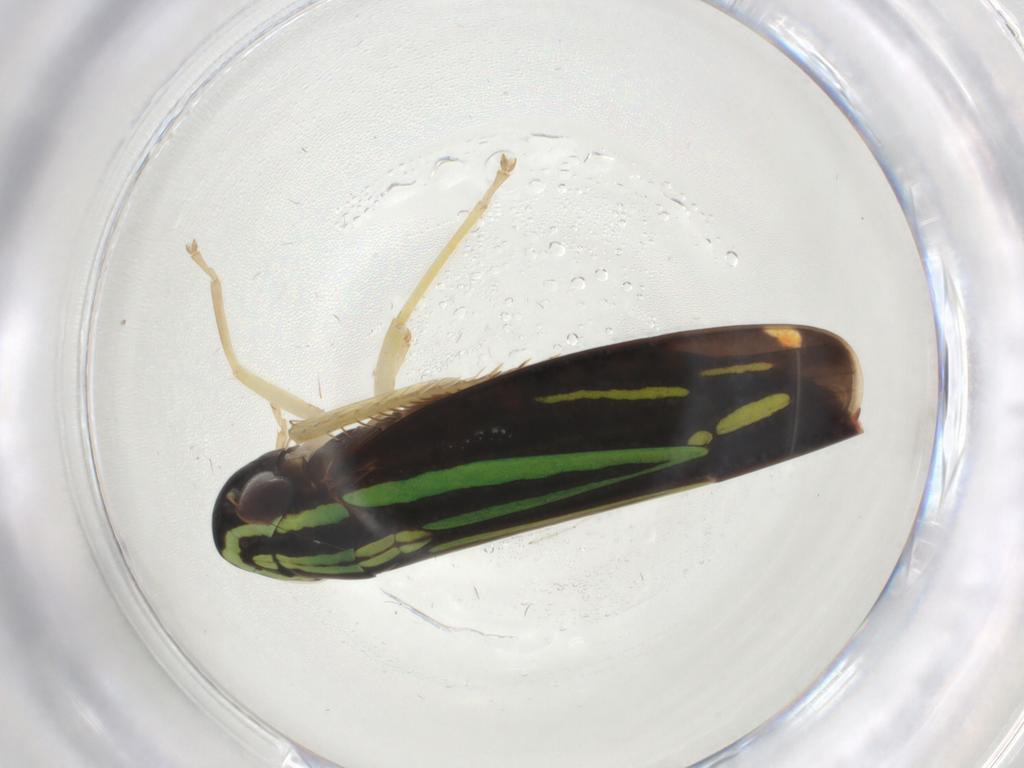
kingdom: Animalia
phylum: Arthropoda
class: Insecta
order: Hemiptera
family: Cicadellidae
